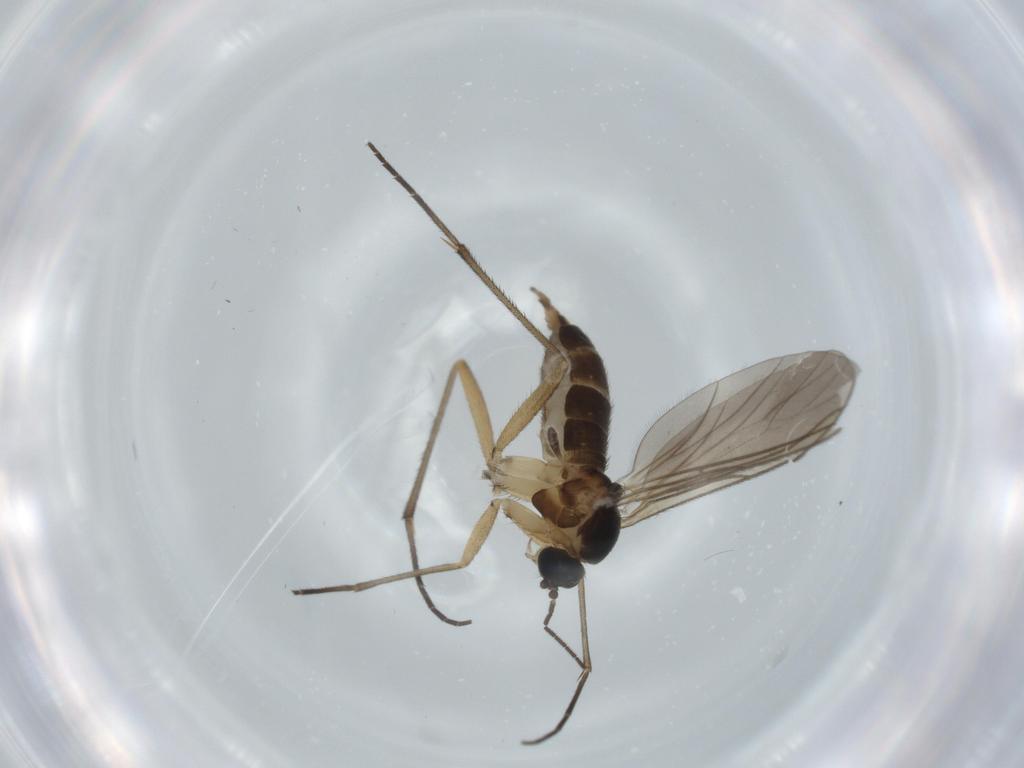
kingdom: Animalia
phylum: Arthropoda
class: Insecta
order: Diptera
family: Sciaridae
